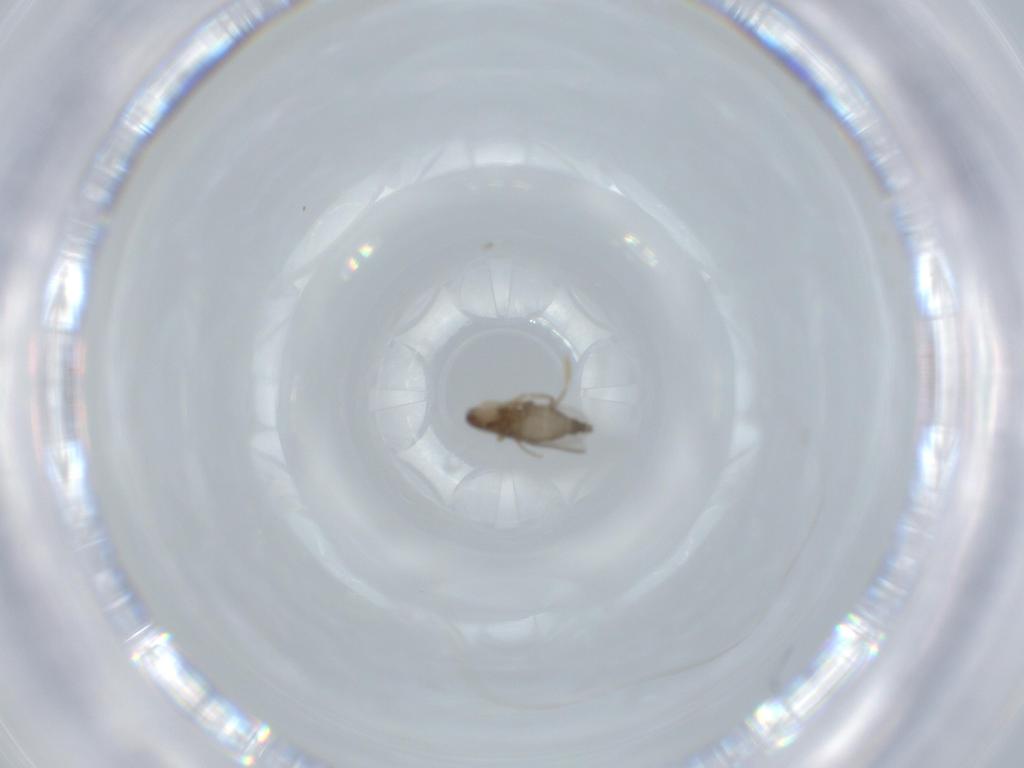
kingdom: Animalia
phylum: Arthropoda
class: Insecta
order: Diptera
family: Phoridae
